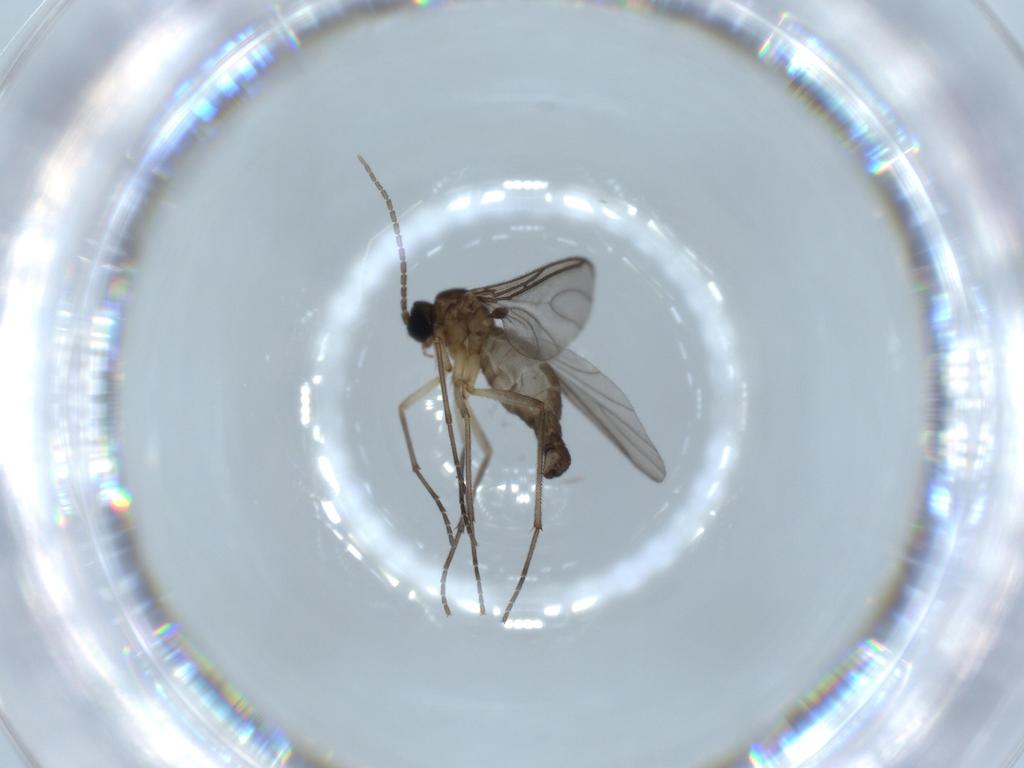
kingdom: Animalia
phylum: Arthropoda
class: Insecta
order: Diptera
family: Sciaridae
